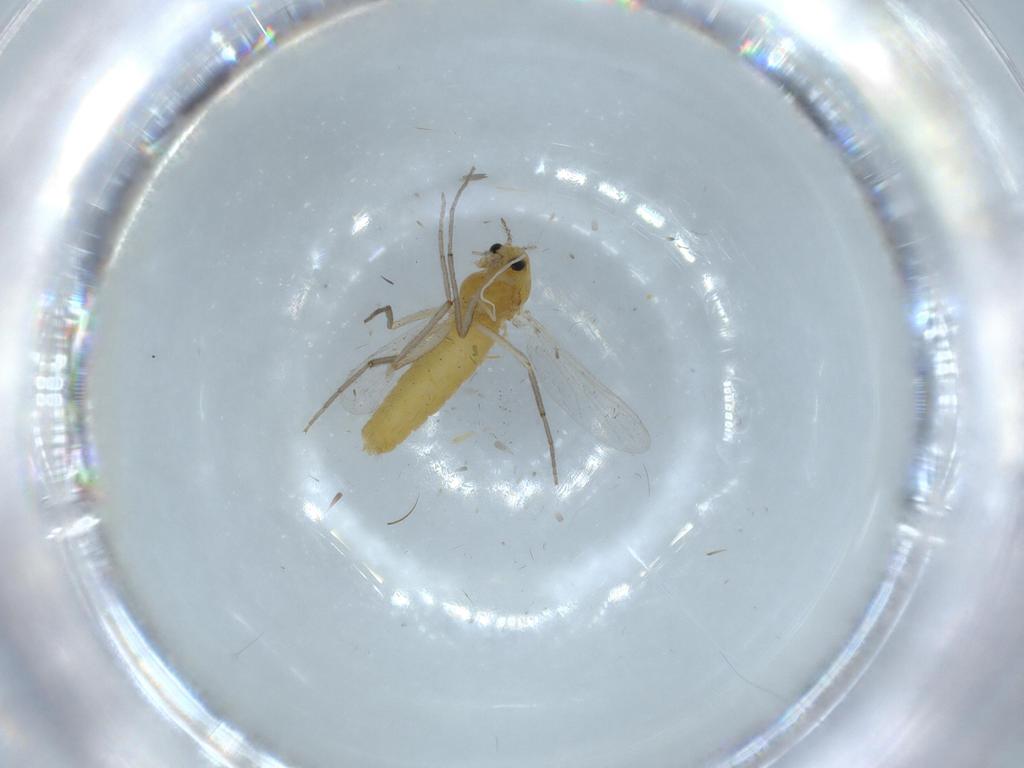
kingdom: Animalia
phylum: Arthropoda
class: Insecta
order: Diptera
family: Chironomidae
